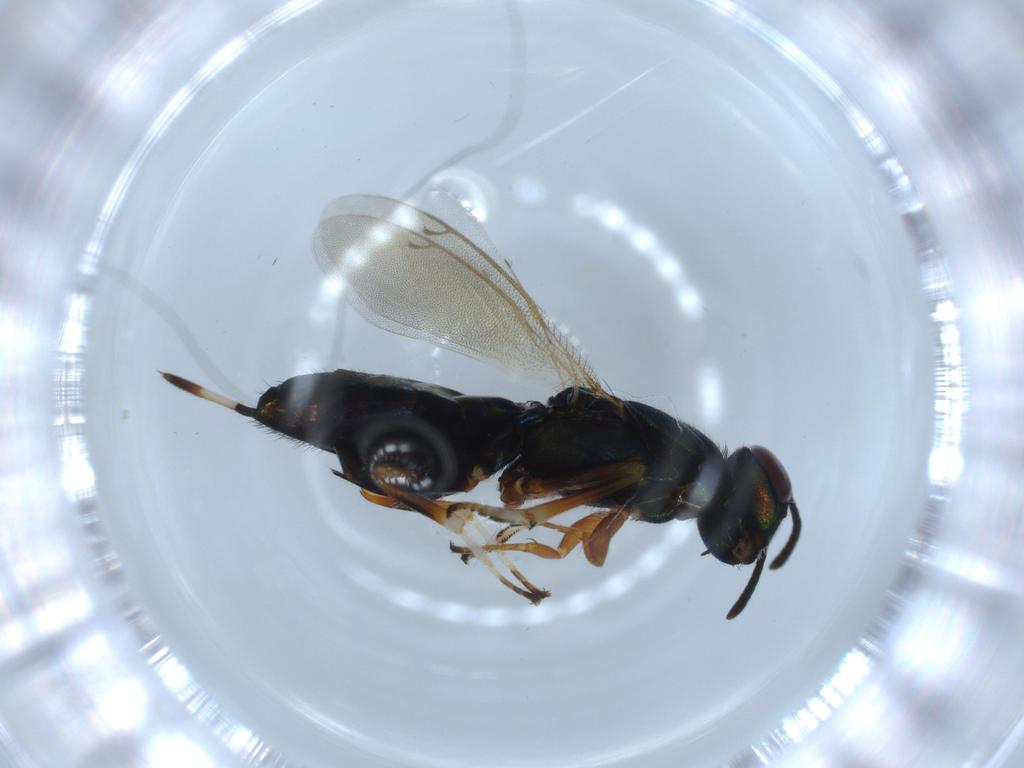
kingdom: Animalia
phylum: Arthropoda
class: Insecta
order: Hymenoptera
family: Eupelmidae
